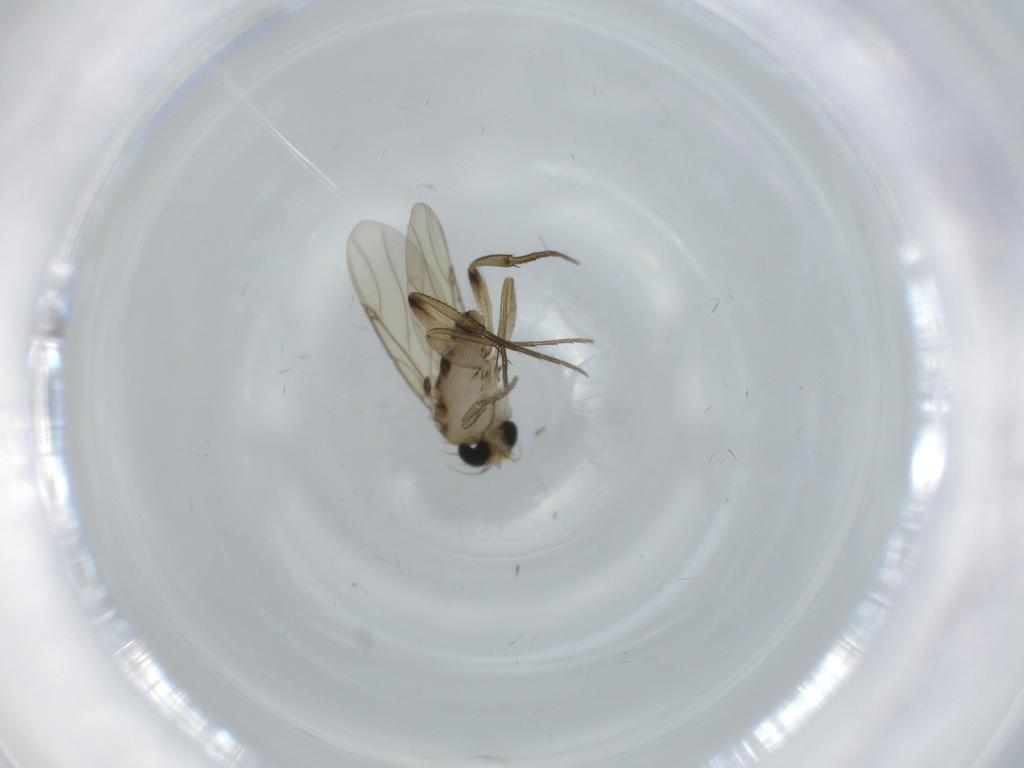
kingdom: Animalia
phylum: Arthropoda
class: Insecta
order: Diptera
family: Phoridae
